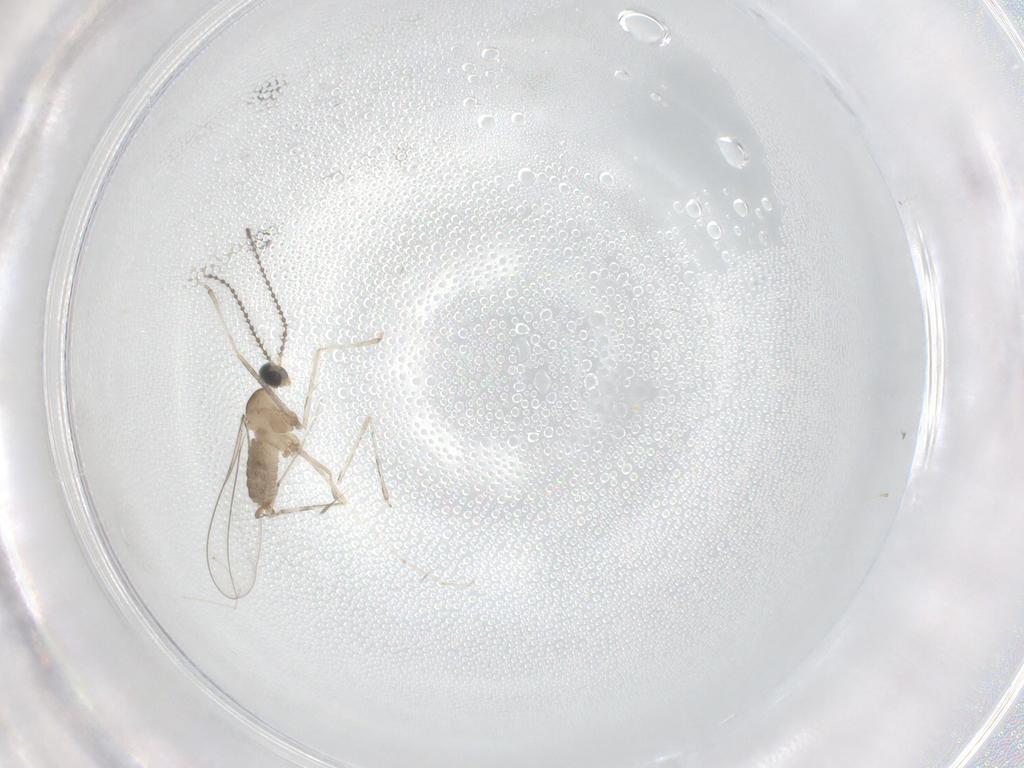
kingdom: Animalia
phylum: Arthropoda
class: Insecta
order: Diptera
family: Cecidomyiidae
